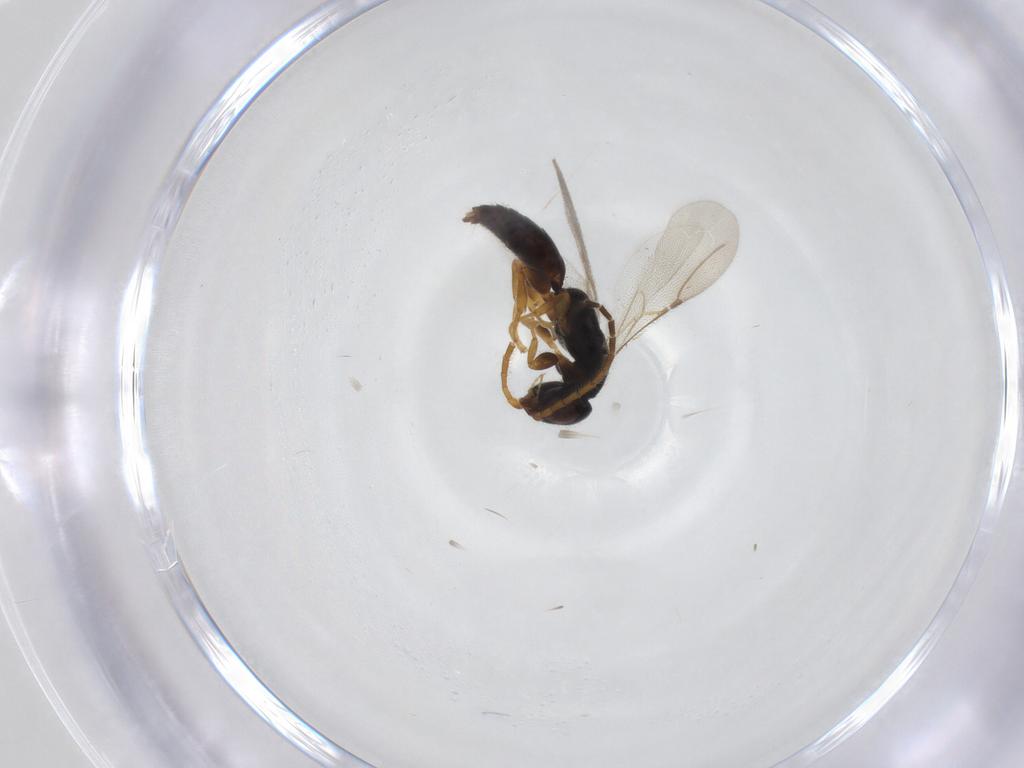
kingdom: Animalia
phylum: Arthropoda
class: Insecta
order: Hymenoptera
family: Bethylidae
